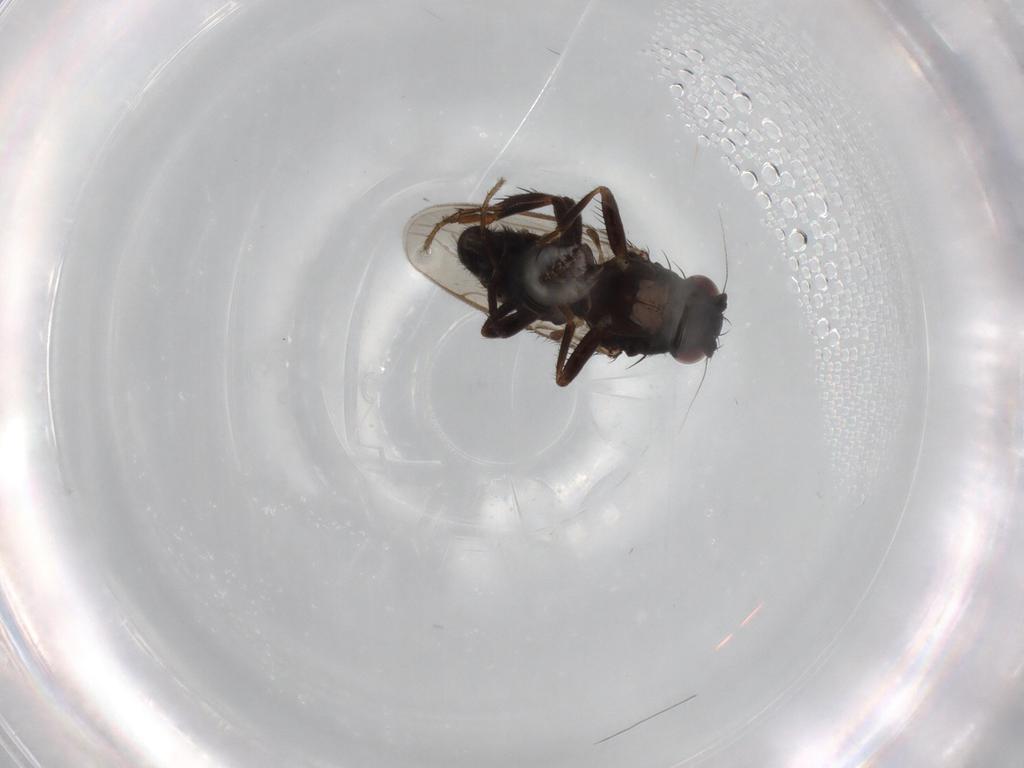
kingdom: Animalia
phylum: Arthropoda
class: Insecta
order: Diptera
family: Sphaeroceridae
